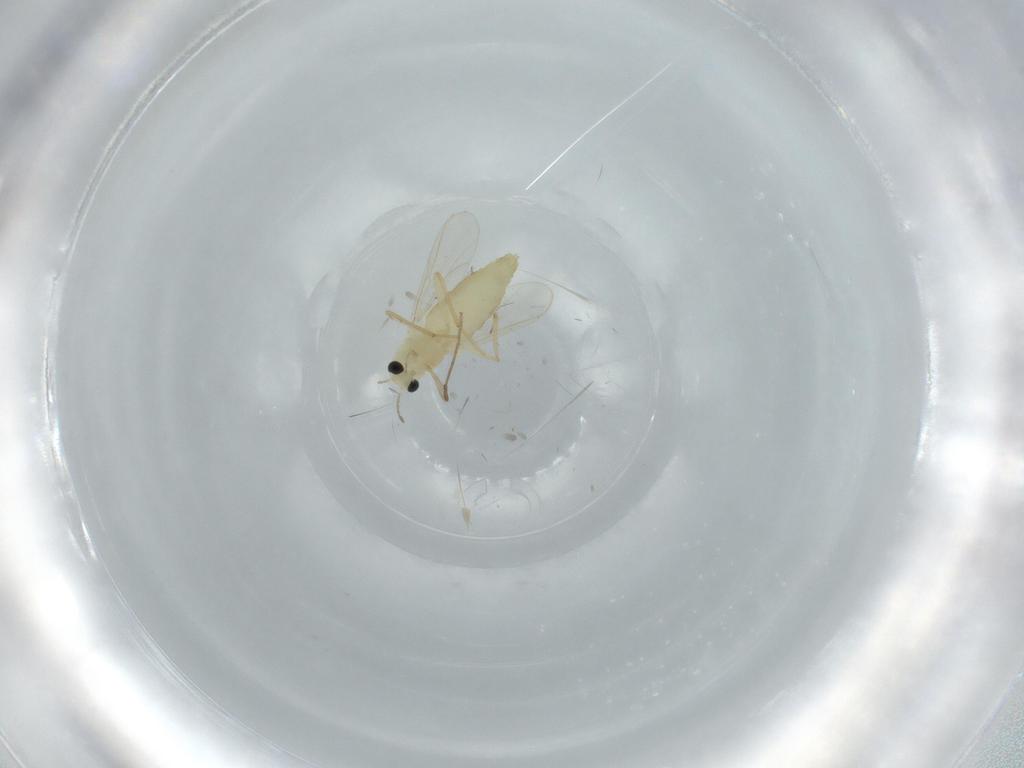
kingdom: Animalia
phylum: Arthropoda
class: Insecta
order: Diptera
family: Chironomidae
